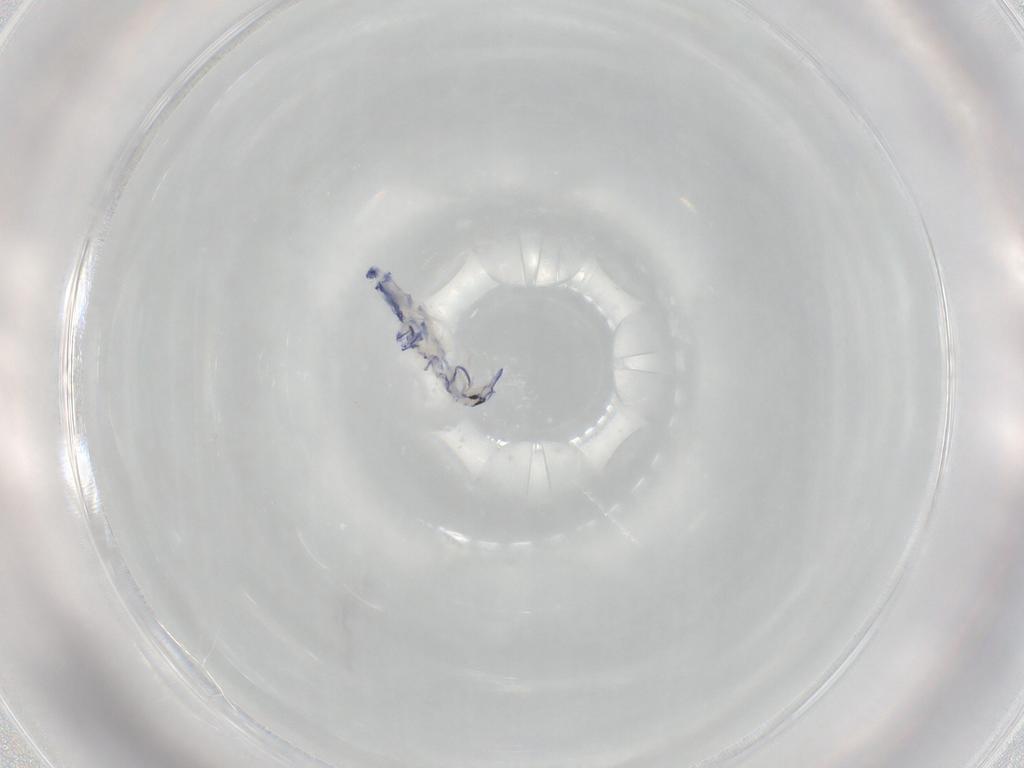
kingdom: Animalia
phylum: Arthropoda
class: Collembola
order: Entomobryomorpha
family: Entomobryidae
